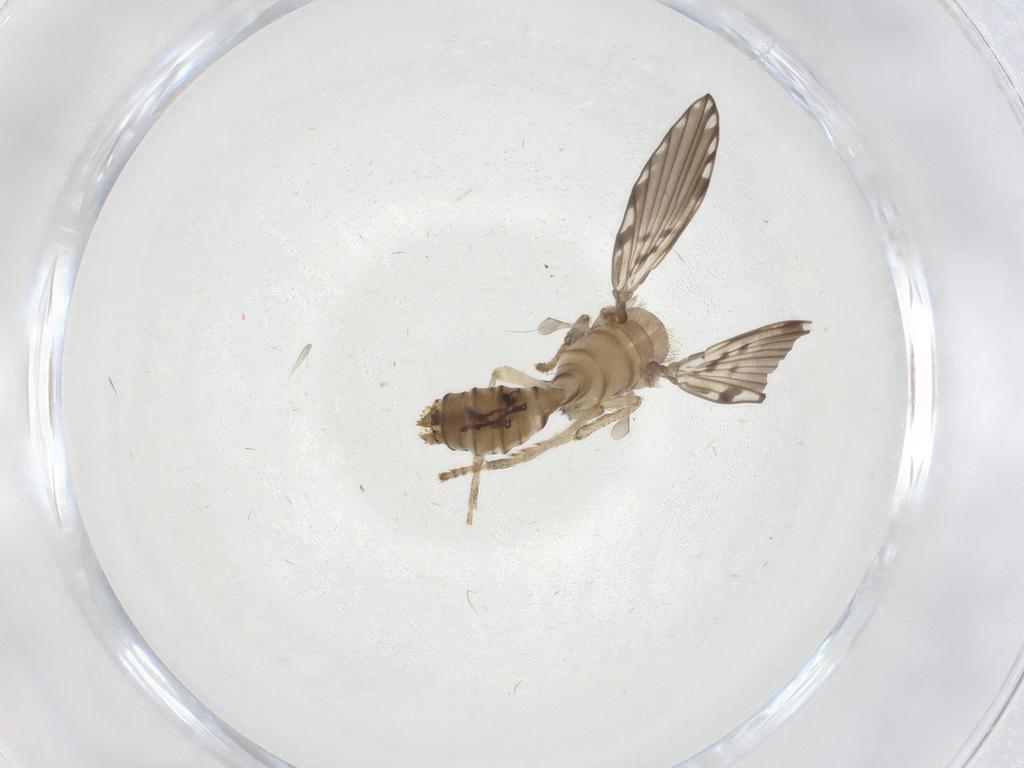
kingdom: Animalia
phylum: Arthropoda
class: Insecta
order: Diptera
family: Psychodidae
